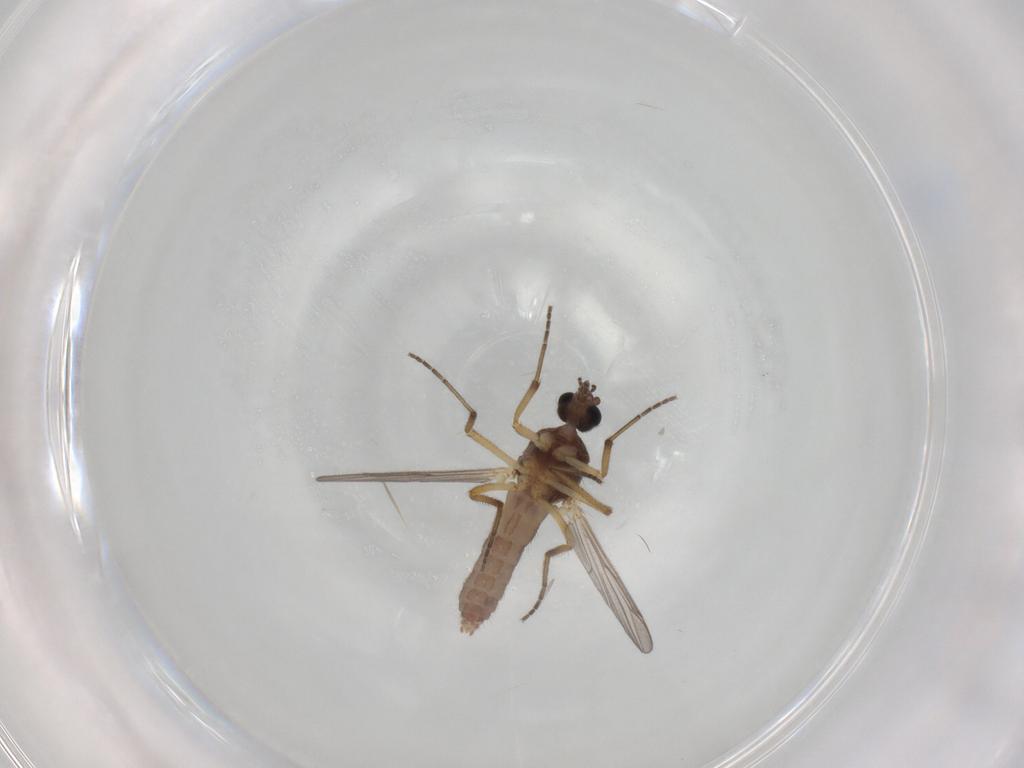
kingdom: Animalia
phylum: Arthropoda
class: Insecta
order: Diptera
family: Ceratopogonidae
